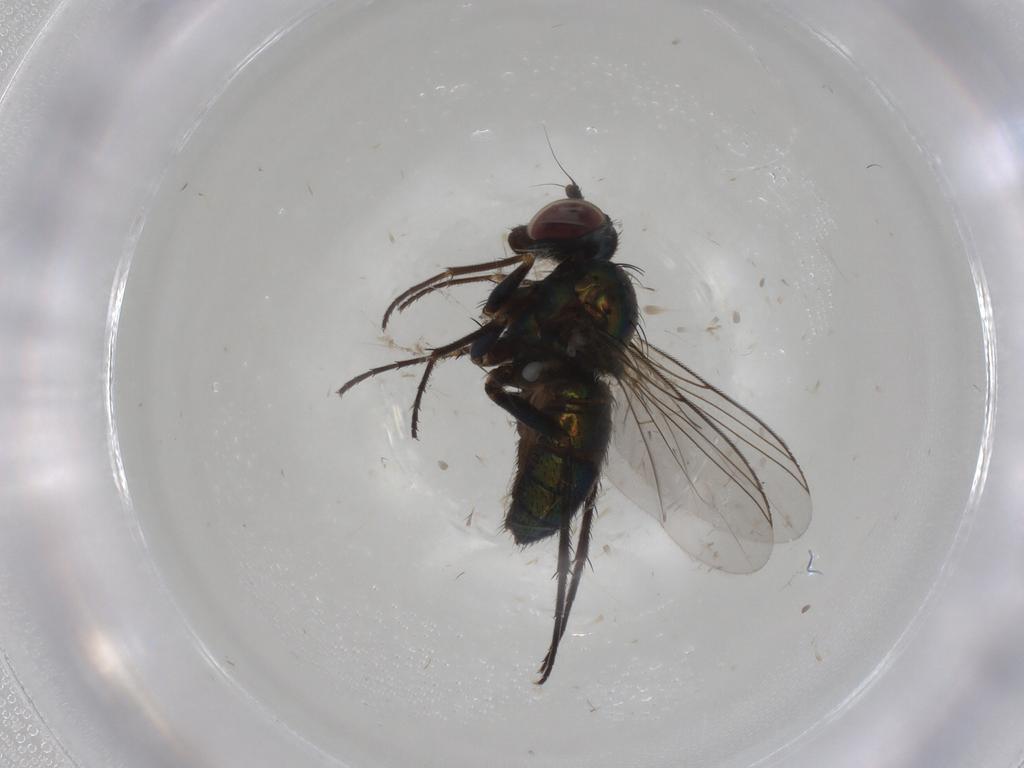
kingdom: Animalia
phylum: Arthropoda
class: Insecta
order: Diptera
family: Dolichopodidae
